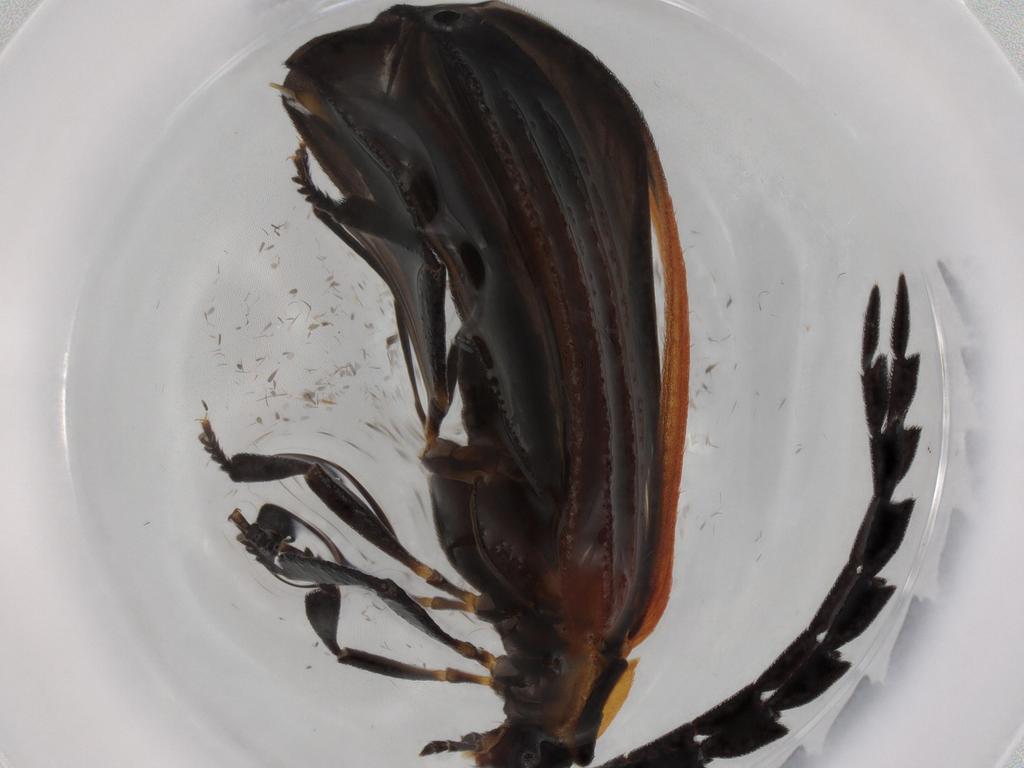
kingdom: Animalia
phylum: Arthropoda
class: Insecta
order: Coleoptera
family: Lycidae
